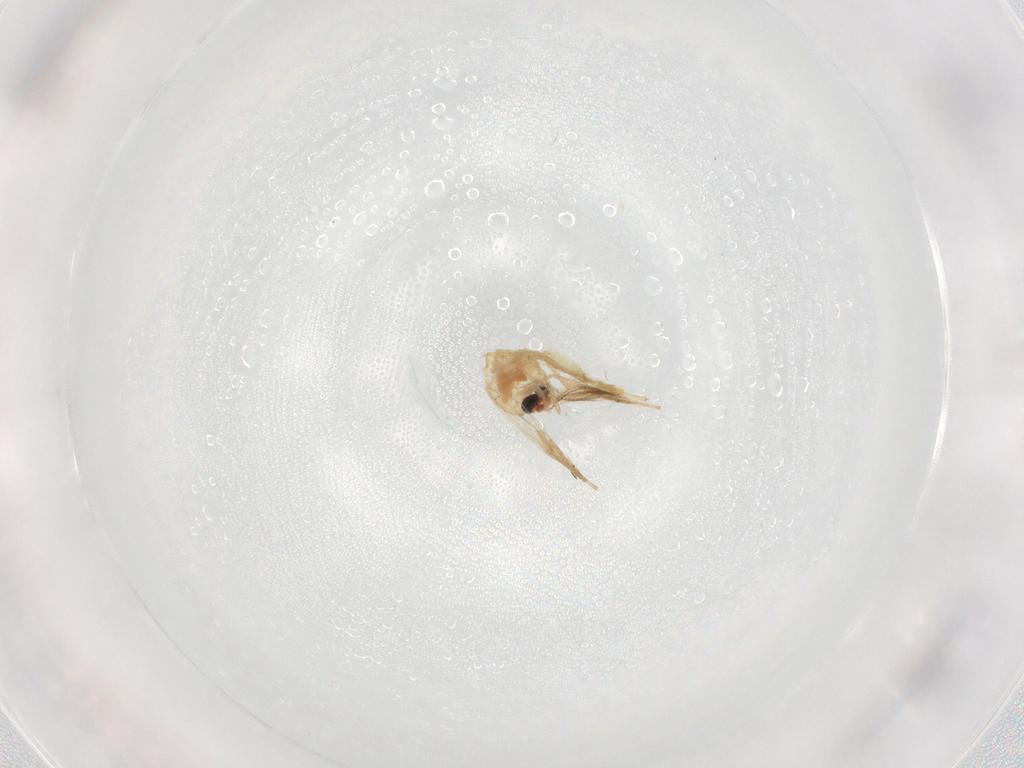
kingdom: Animalia
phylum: Arthropoda
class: Insecta
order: Diptera
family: Chironomidae
